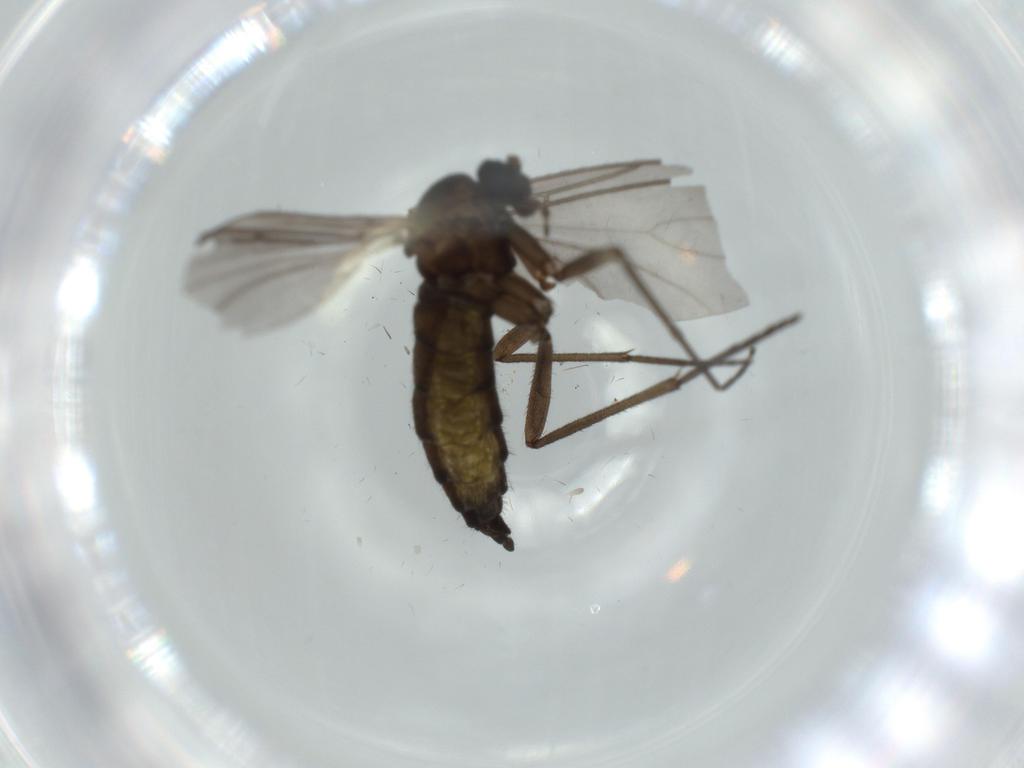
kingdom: Animalia
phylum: Arthropoda
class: Insecta
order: Diptera
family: Sciaridae
